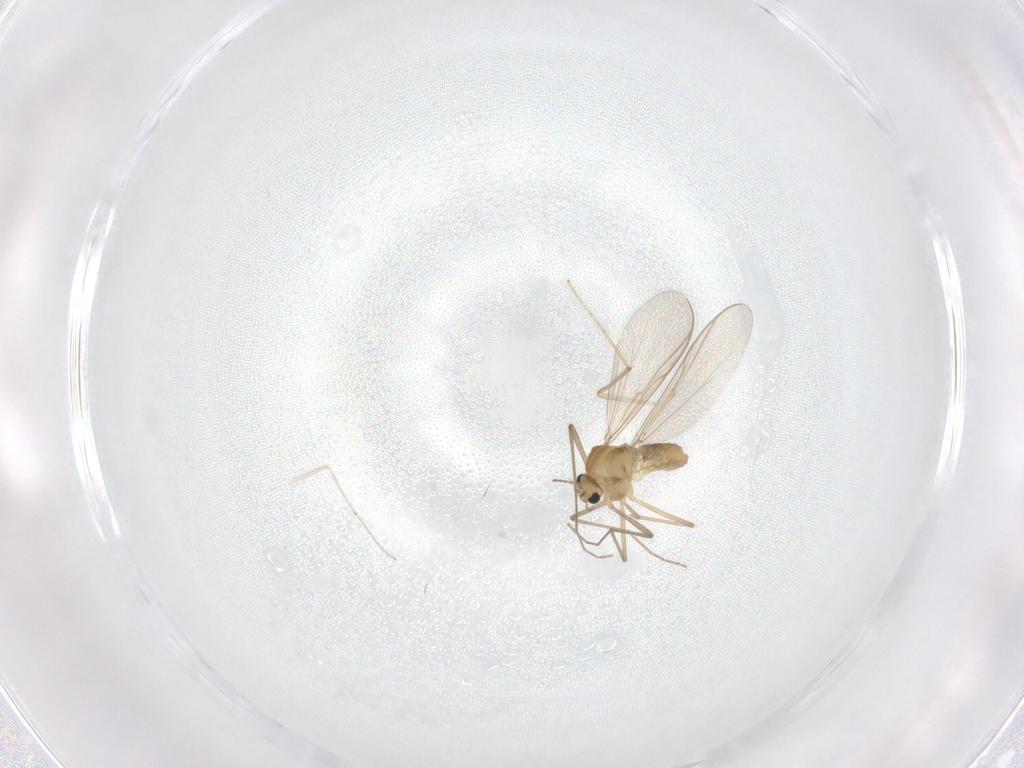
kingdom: Animalia
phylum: Arthropoda
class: Insecta
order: Diptera
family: Chironomidae
